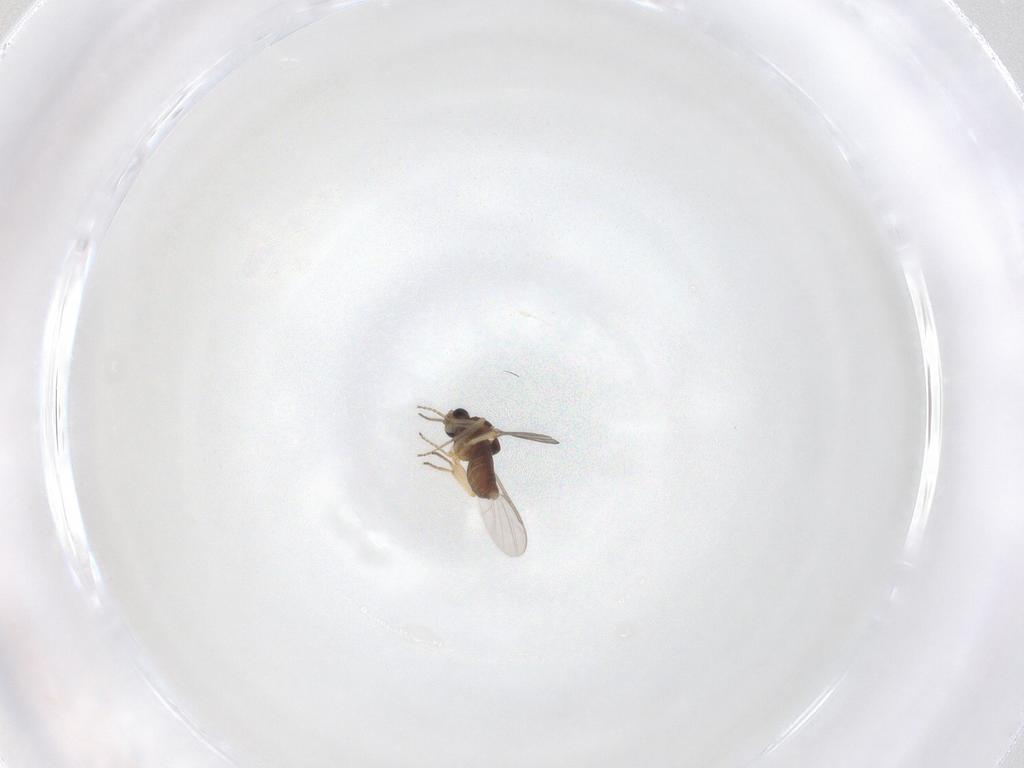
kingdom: Animalia
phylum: Arthropoda
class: Insecta
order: Diptera
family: Ceratopogonidae
